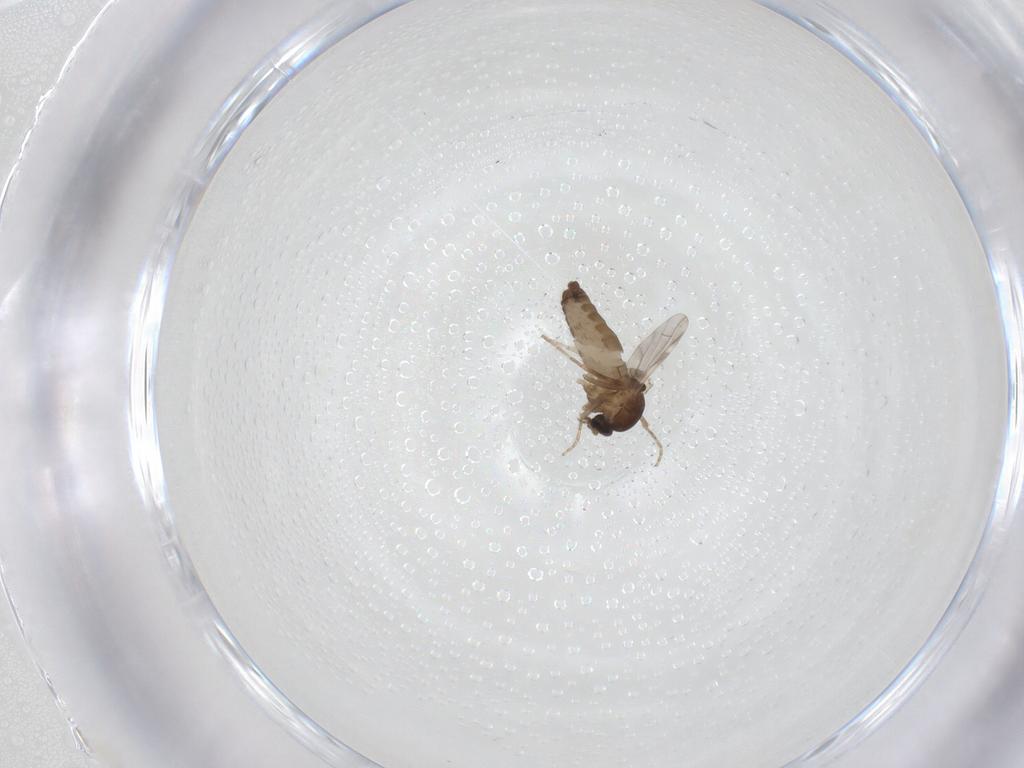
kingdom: Animalia
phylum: Arthropoda
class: Insecta
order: Diptera
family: Ceratopogonidae
